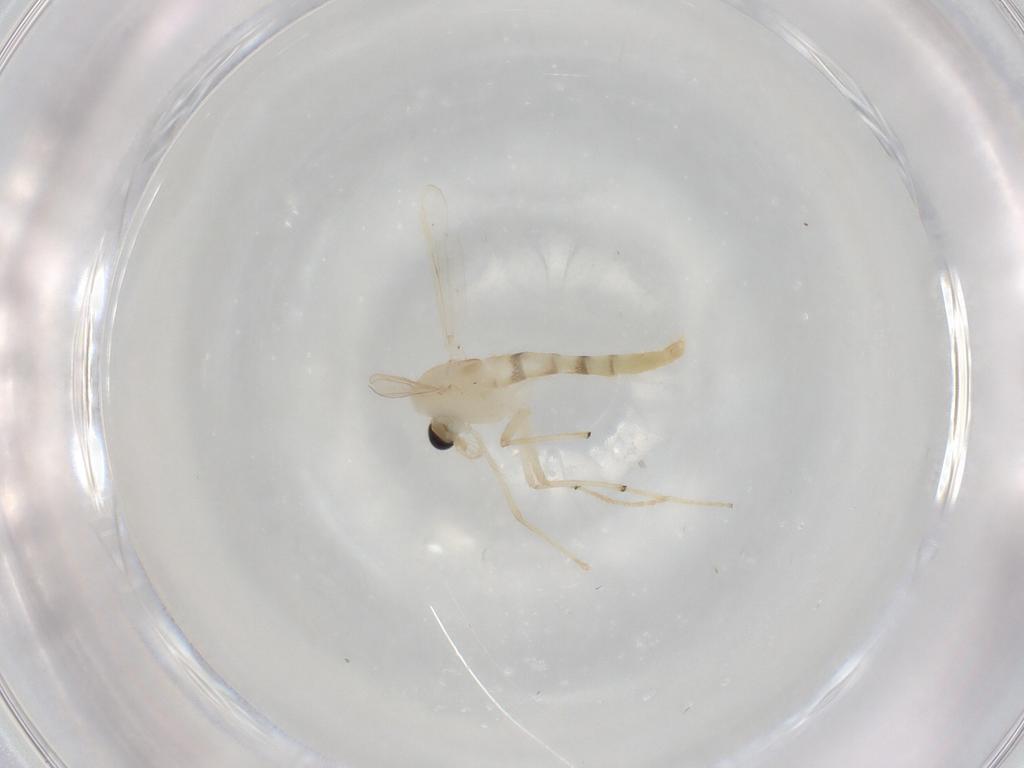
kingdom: Animalia
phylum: Arthropoda
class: Insecta
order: Diptera
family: Chironomidae
